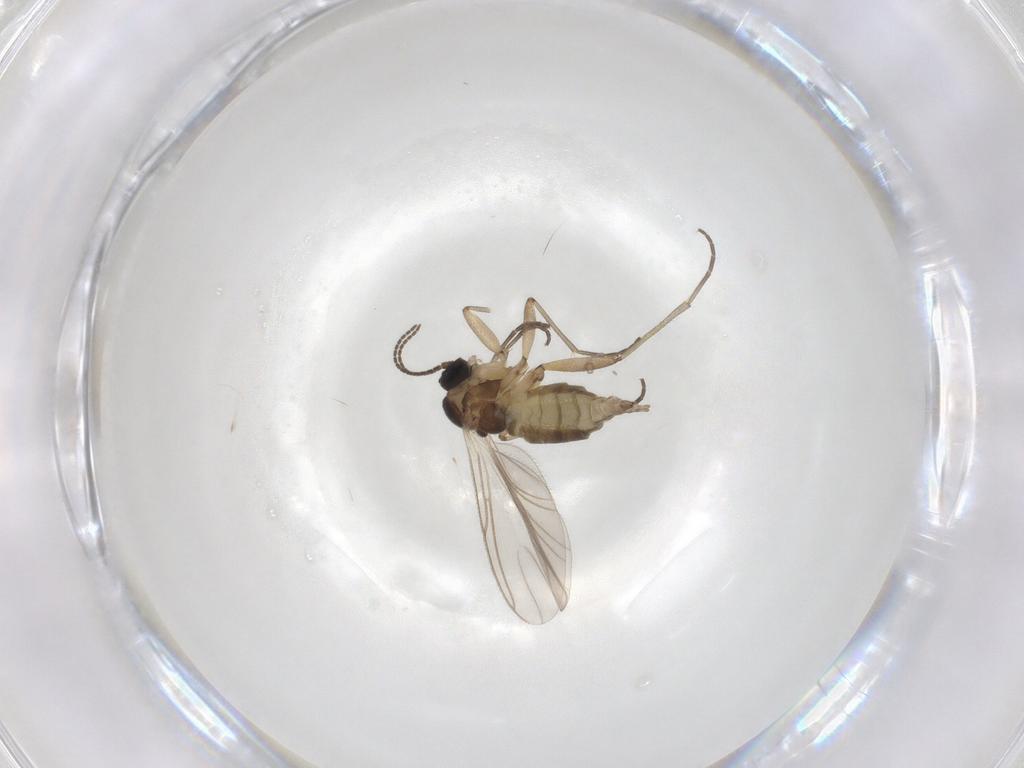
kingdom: Animalia
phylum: Arthropoda
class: Insecta
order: Diptera
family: Cecidomyiidae
